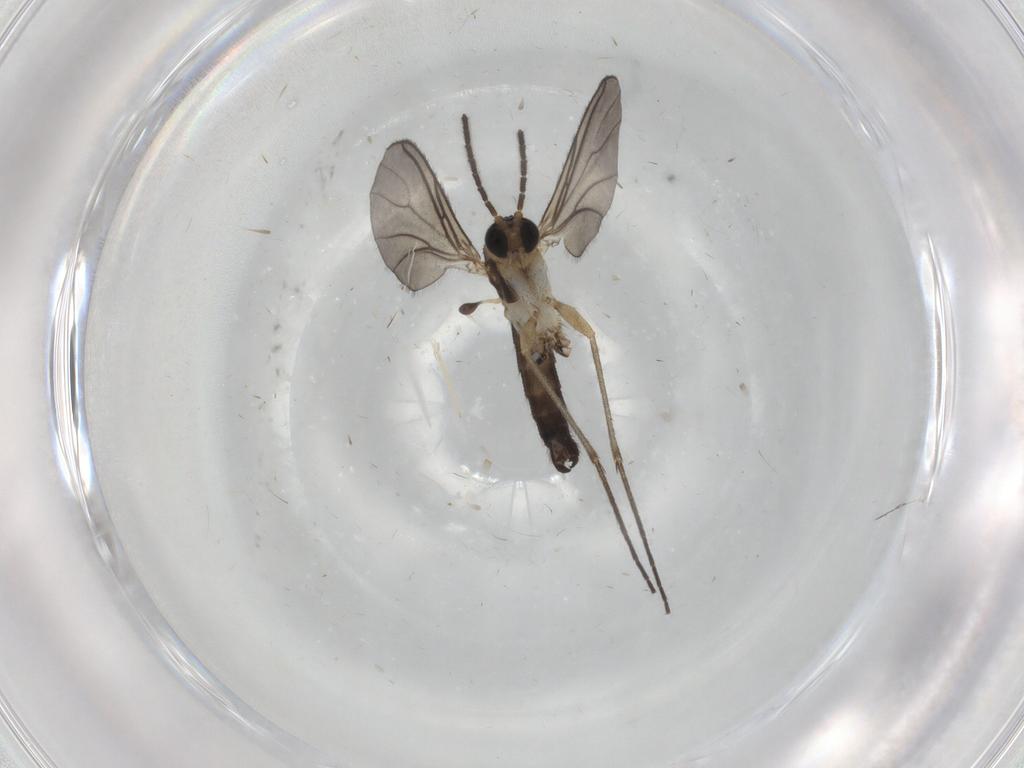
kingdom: Animalia
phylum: Arthropoda
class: Insecta
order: Diptera
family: Sciaridae
